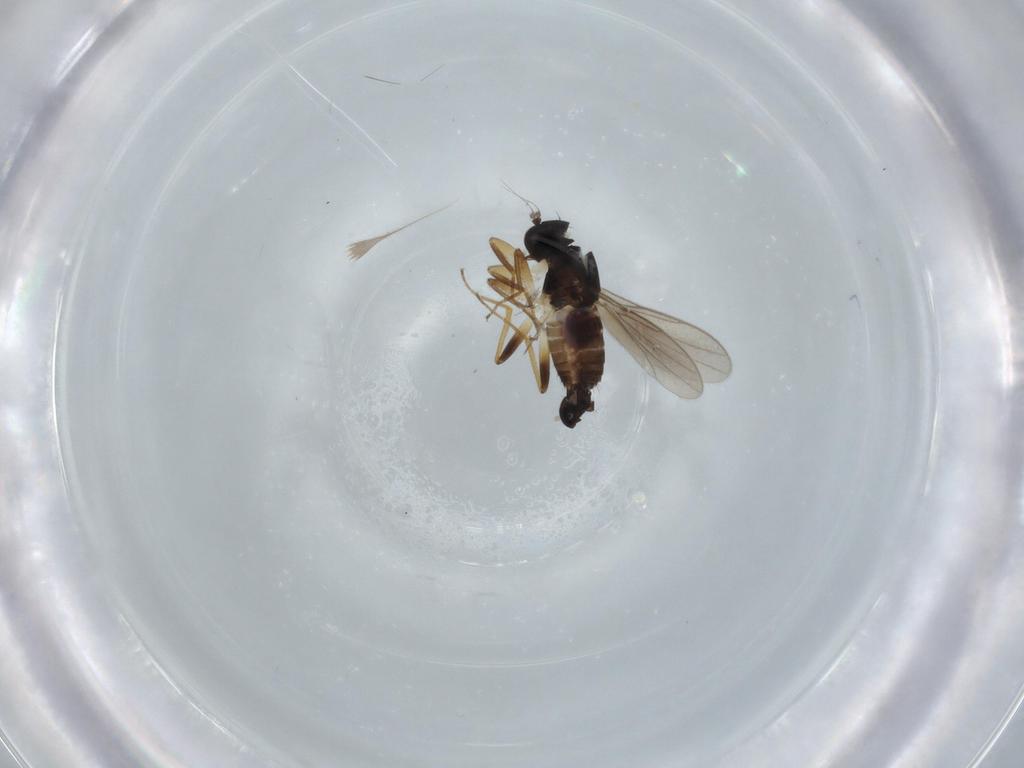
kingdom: Animalia
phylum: Arthropoda
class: Insecta
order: Diptera
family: Hybotidae
